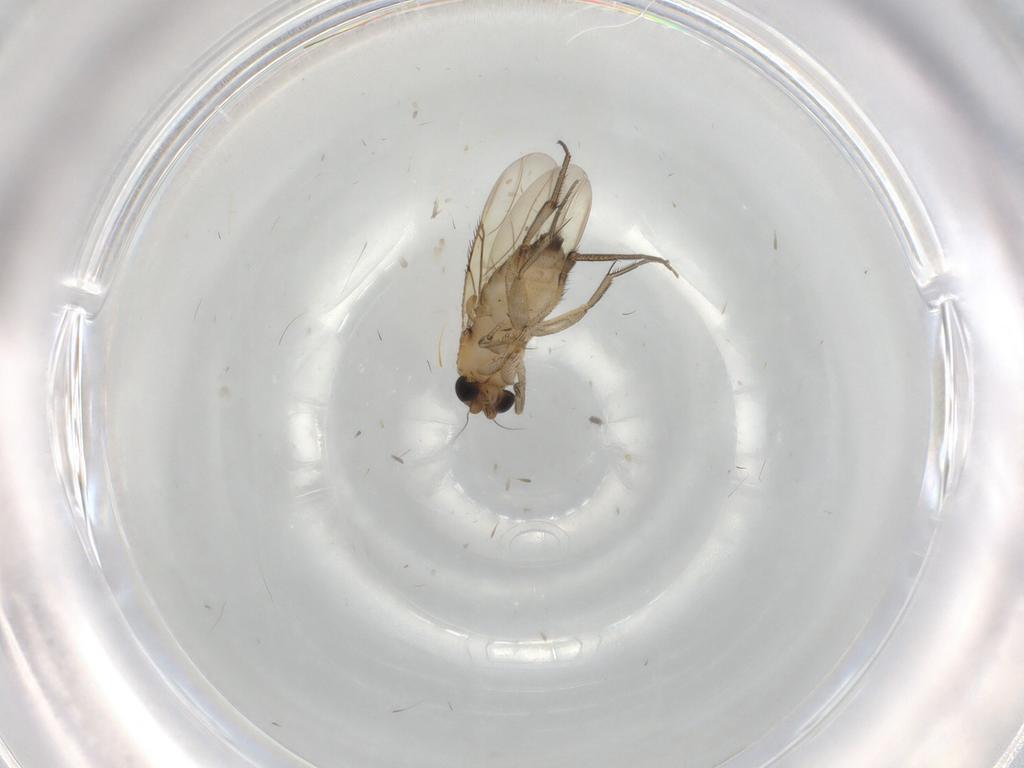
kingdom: Animalia
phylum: Arthropoda
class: Insecta
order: Diptera
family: Phoridae
